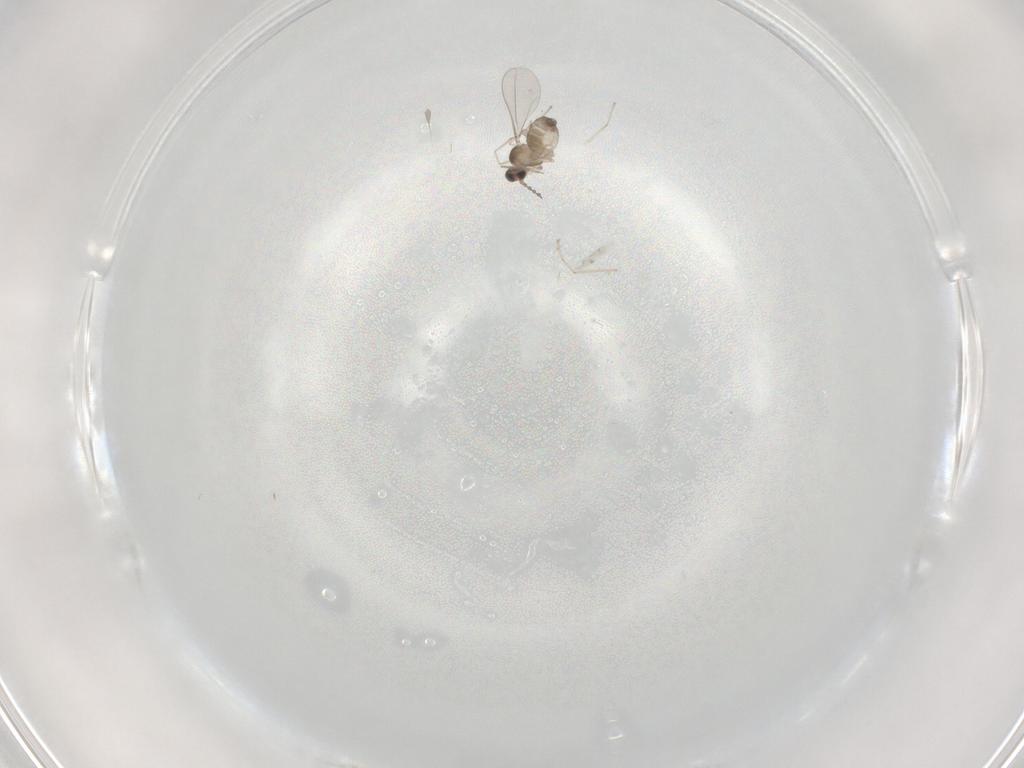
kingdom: Animalia
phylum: Arthropoda
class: Insecta
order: Diptera
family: Cecidomyiidae
